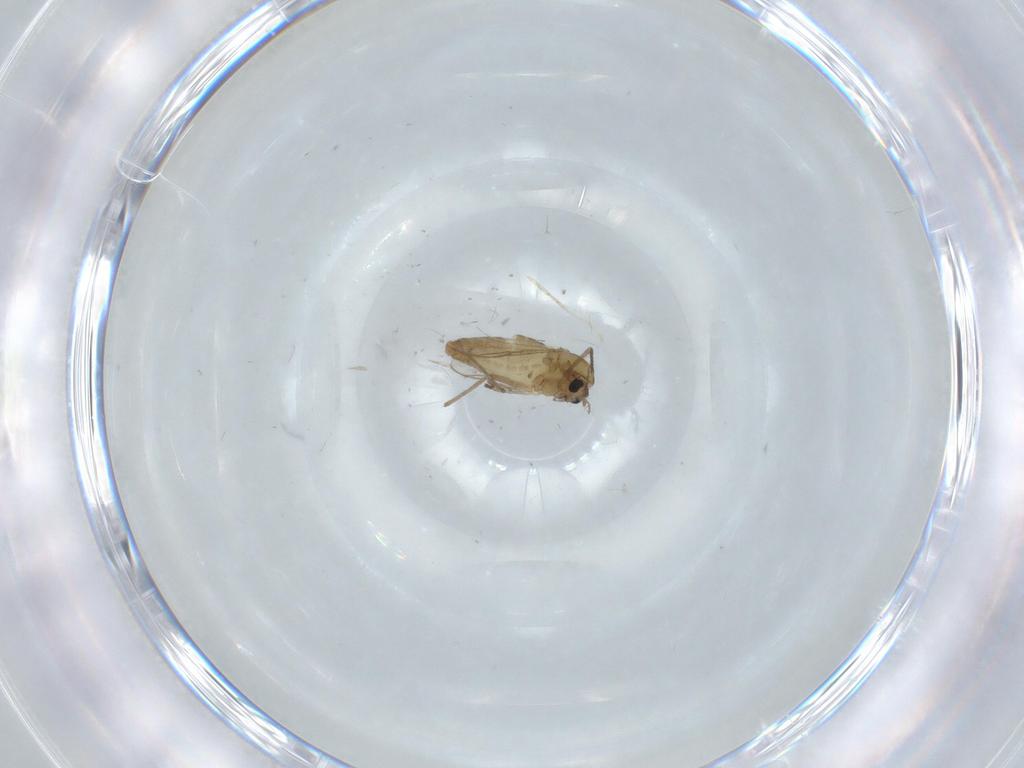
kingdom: Animalia
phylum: Arthropoda
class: Insecta
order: Diptera
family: Chironomidae
